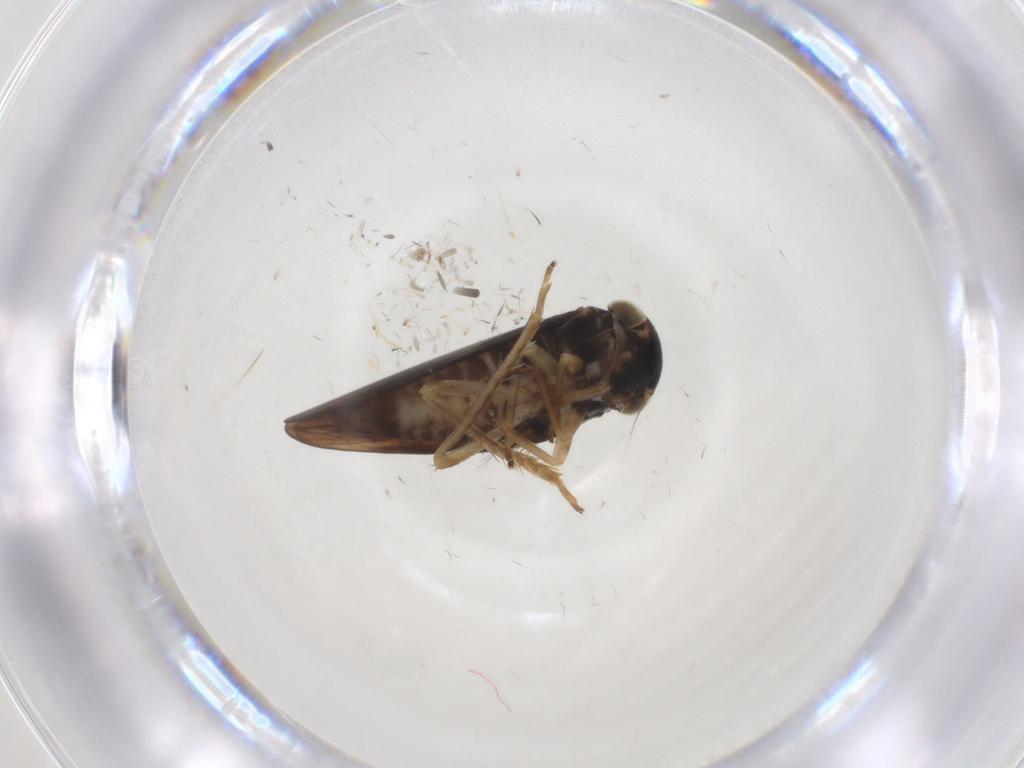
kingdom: Animalia
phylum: Arthropoda
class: Insecta
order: Hemiptera
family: Cicadellidae
